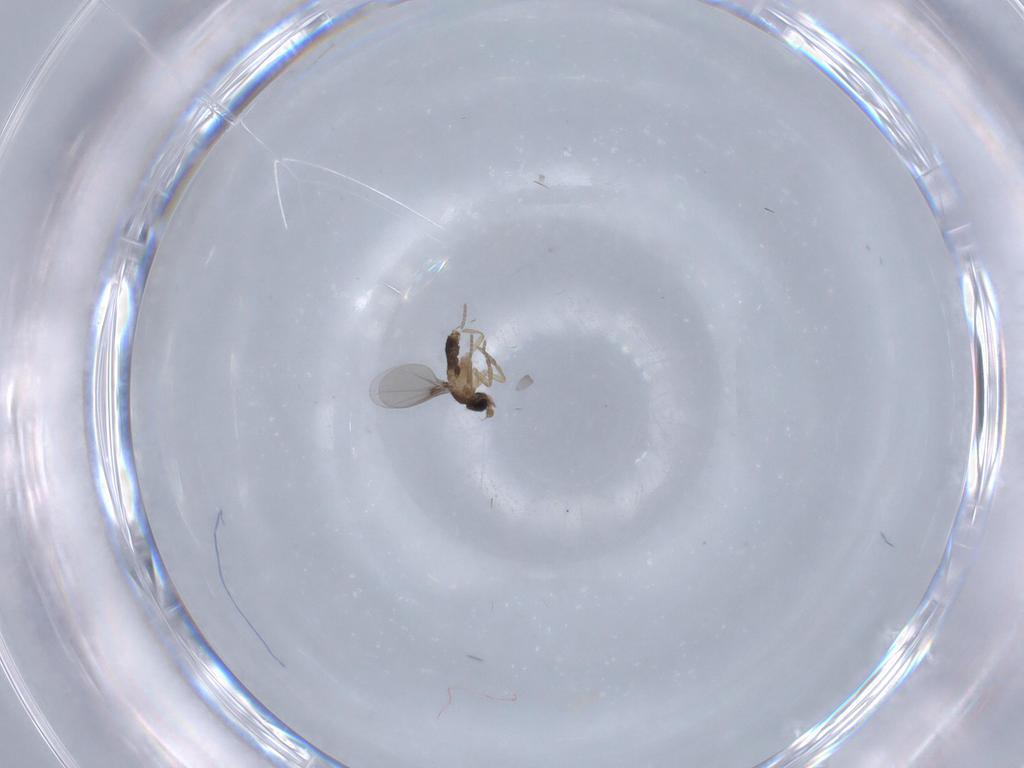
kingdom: Animalia
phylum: Arthropoda
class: Insecta
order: Diptera
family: Phoridae
